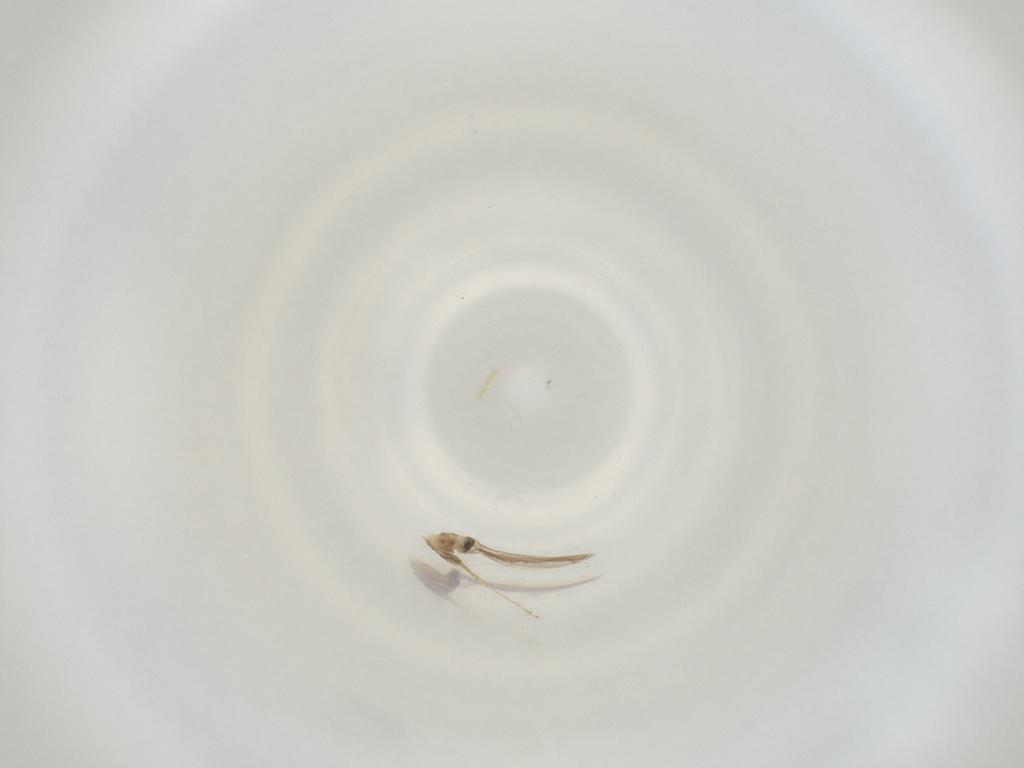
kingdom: Animalia
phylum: Arthropoda
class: Insecta
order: Diptera
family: Cecidomyiidae
